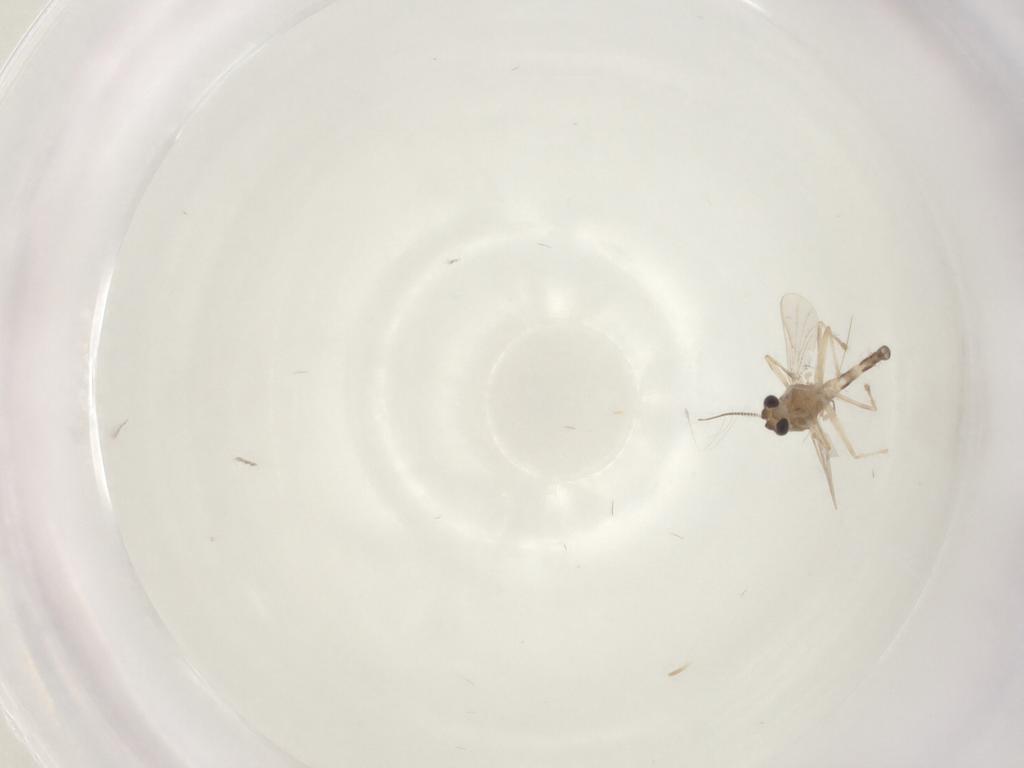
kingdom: Animalia
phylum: Arthropoda
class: Insecta
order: Diptera
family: Chironomidae
